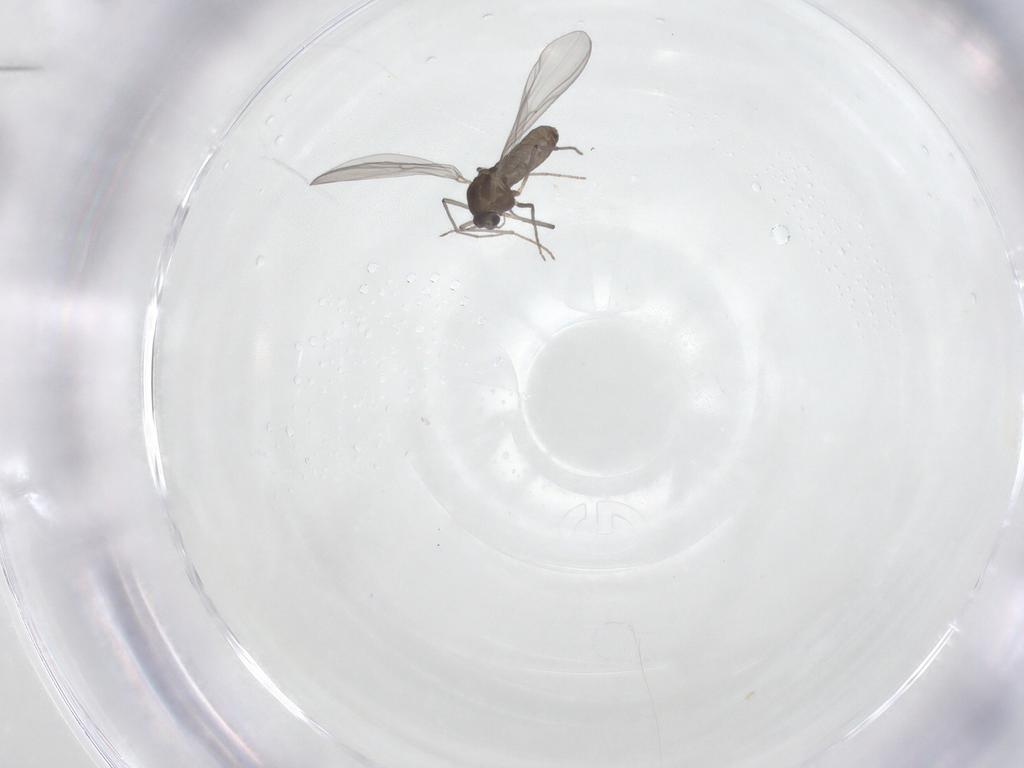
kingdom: Animalia
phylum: Arthropoda
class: Insecta
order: Diptera
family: Chironomidae
